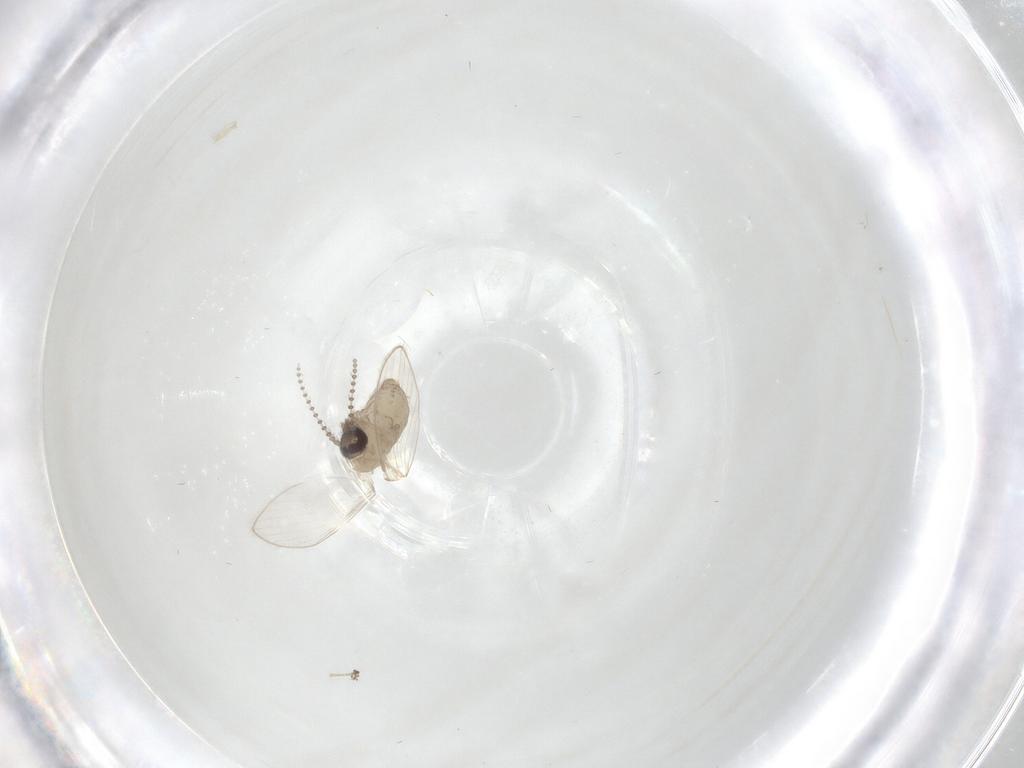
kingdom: Animalia
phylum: Arthropoda
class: Insecta
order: Diptera
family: Psychodidae
